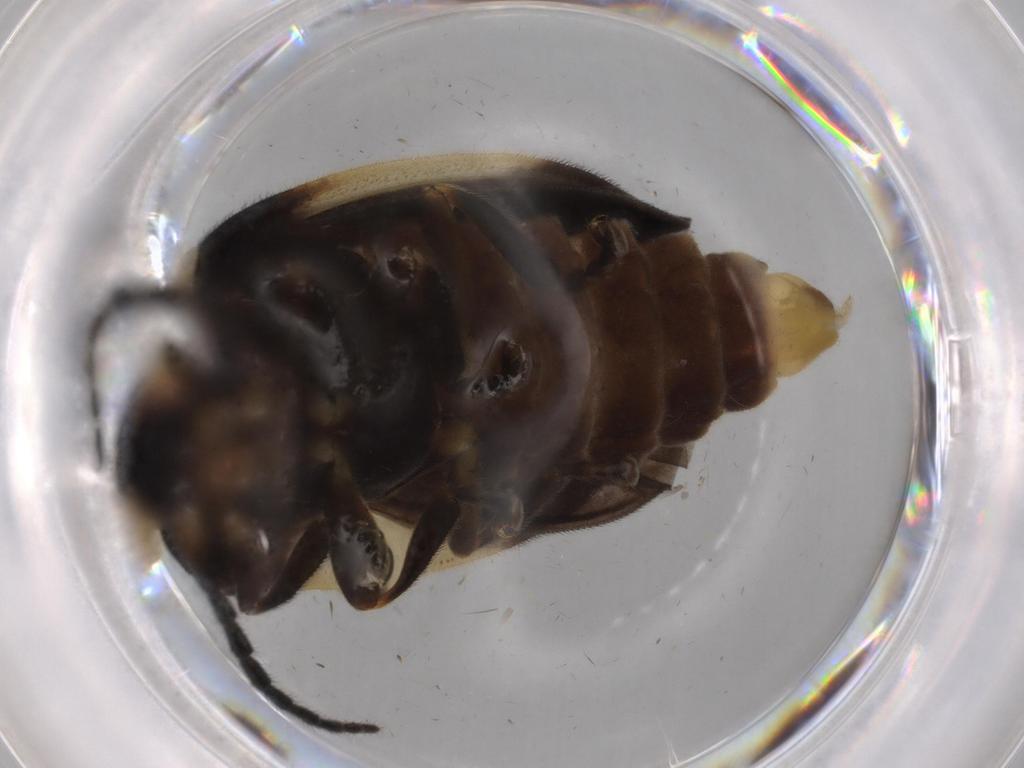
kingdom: Animalia
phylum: Arthropoda
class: Insecta
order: Coleoptera
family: Lampyridae
